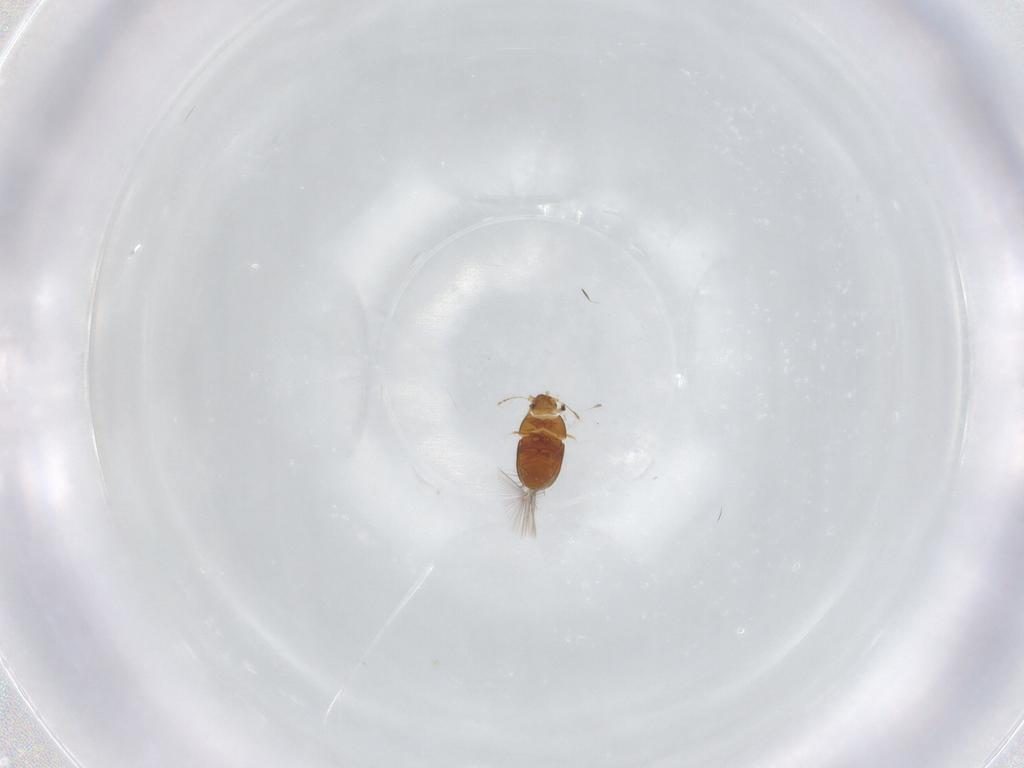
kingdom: Animalia
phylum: Arthropoda
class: Insecta
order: Coleoptera
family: Ptiliidae
